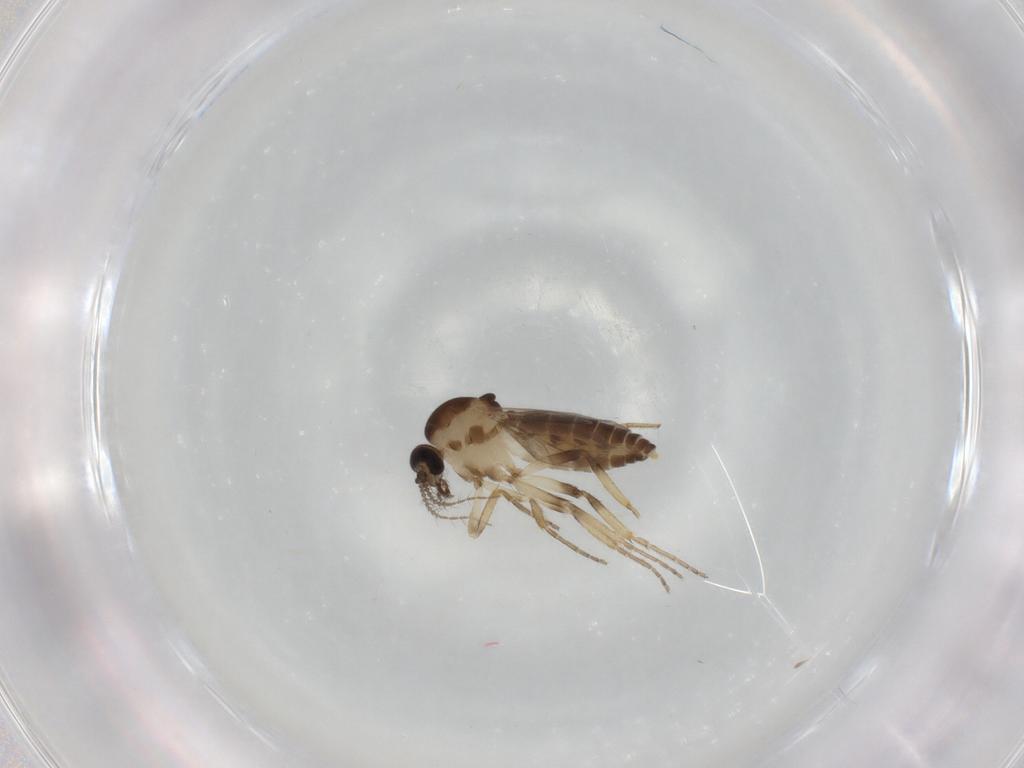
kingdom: Animalia
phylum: Arthropoda
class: Insecta
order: Diptera
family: Ceratopogonidae
